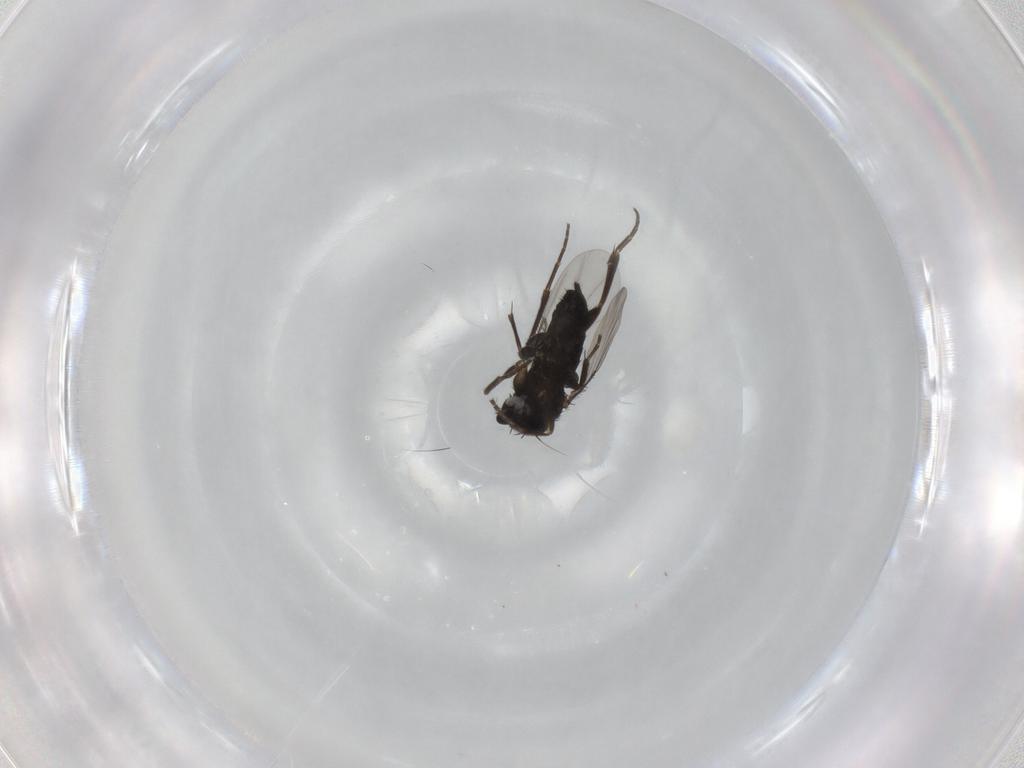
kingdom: Animalia
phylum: Arthropoda
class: Insecta
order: Diptera
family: Phoridae
